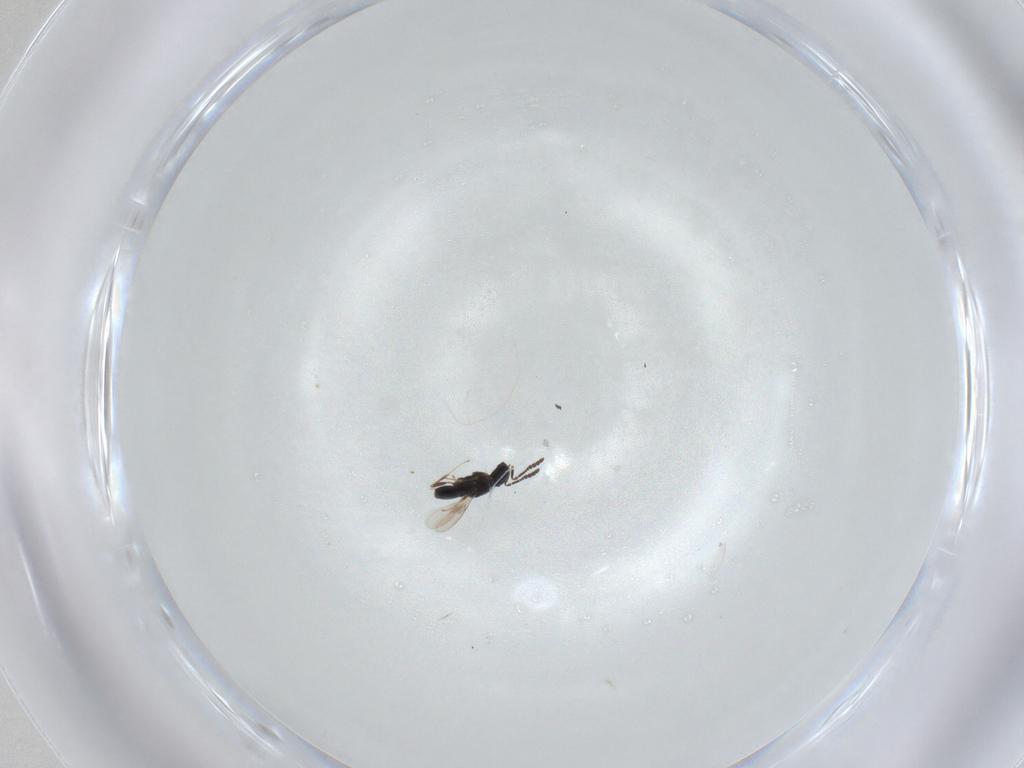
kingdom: Animalia
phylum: Arthropoda
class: Insecta
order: Hymenoptera
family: Scelionidae
